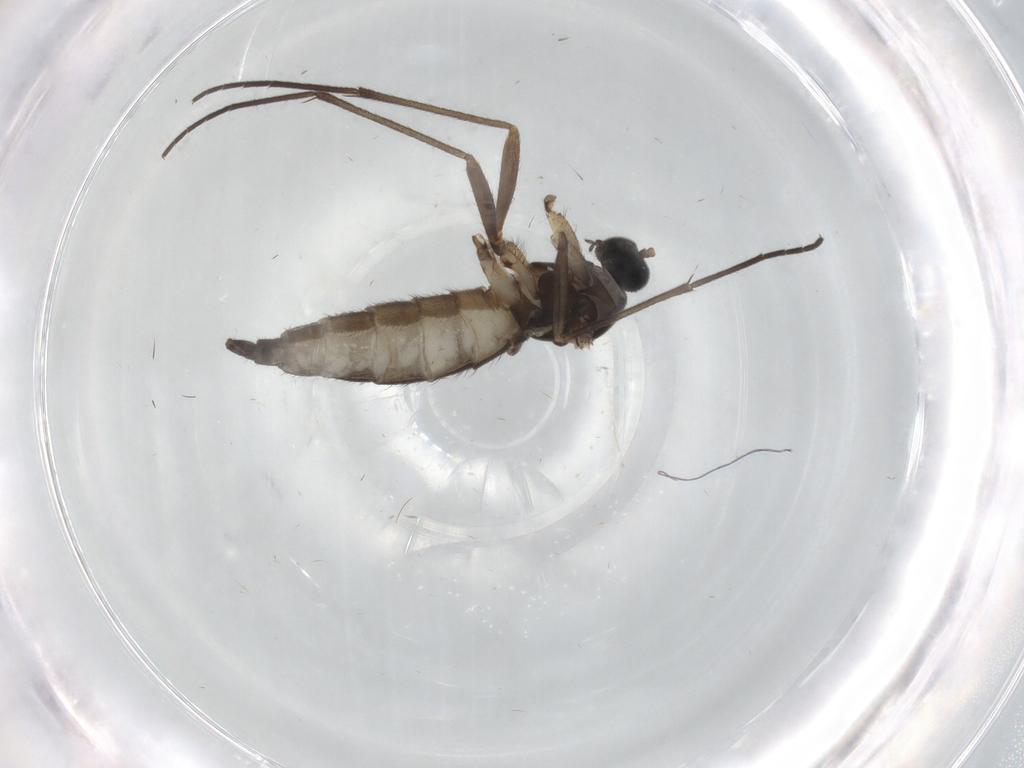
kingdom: Animalia
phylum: Arthropoda
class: Insecta
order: Diptera
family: Sciaridae
